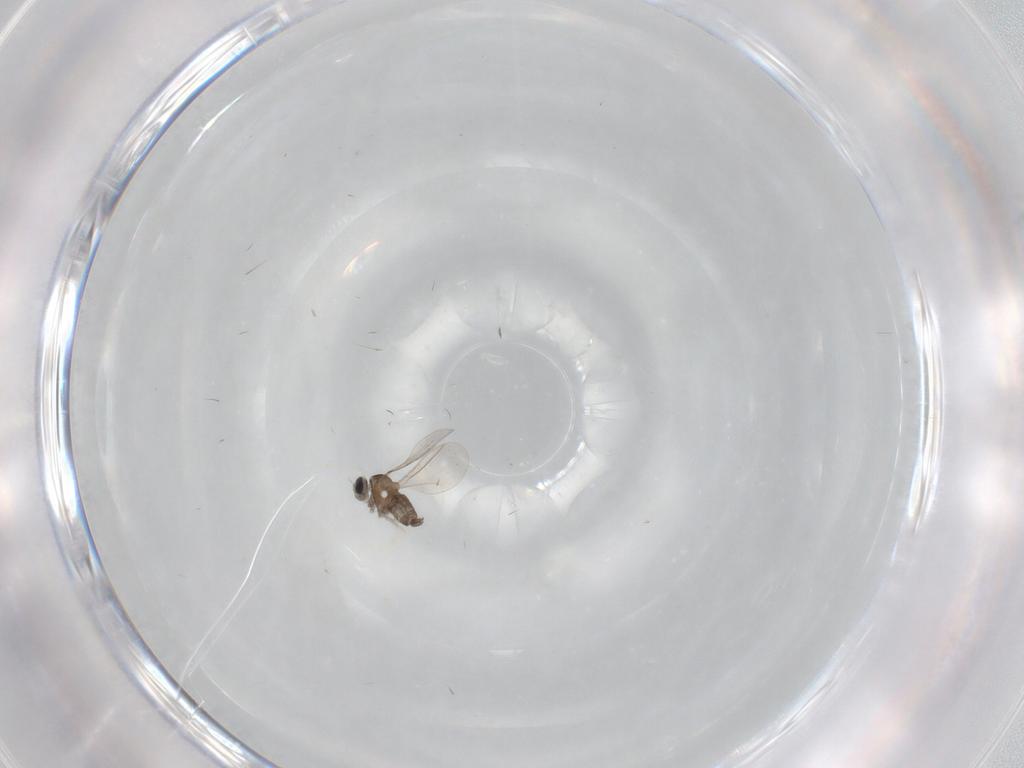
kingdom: Animalia
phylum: Arthropoda
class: Insecta
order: Diptera
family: Cecidomyiidae
